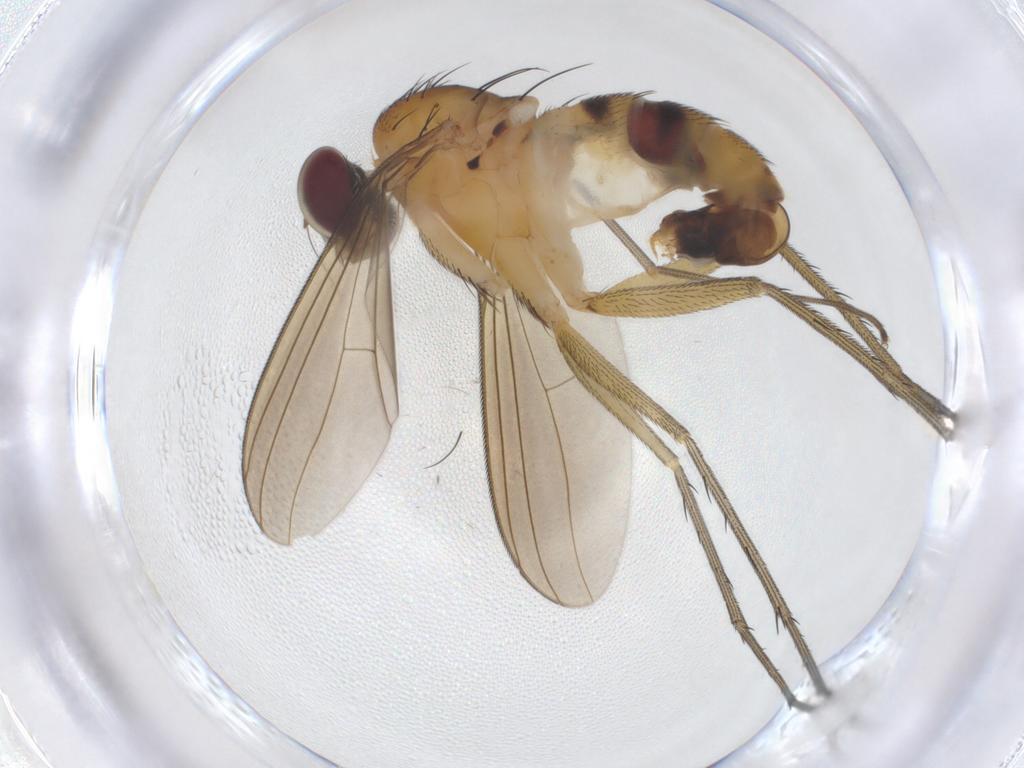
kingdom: Animalia
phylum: Arthropoda
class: Insecta
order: Diptera
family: Dolichopodidae
